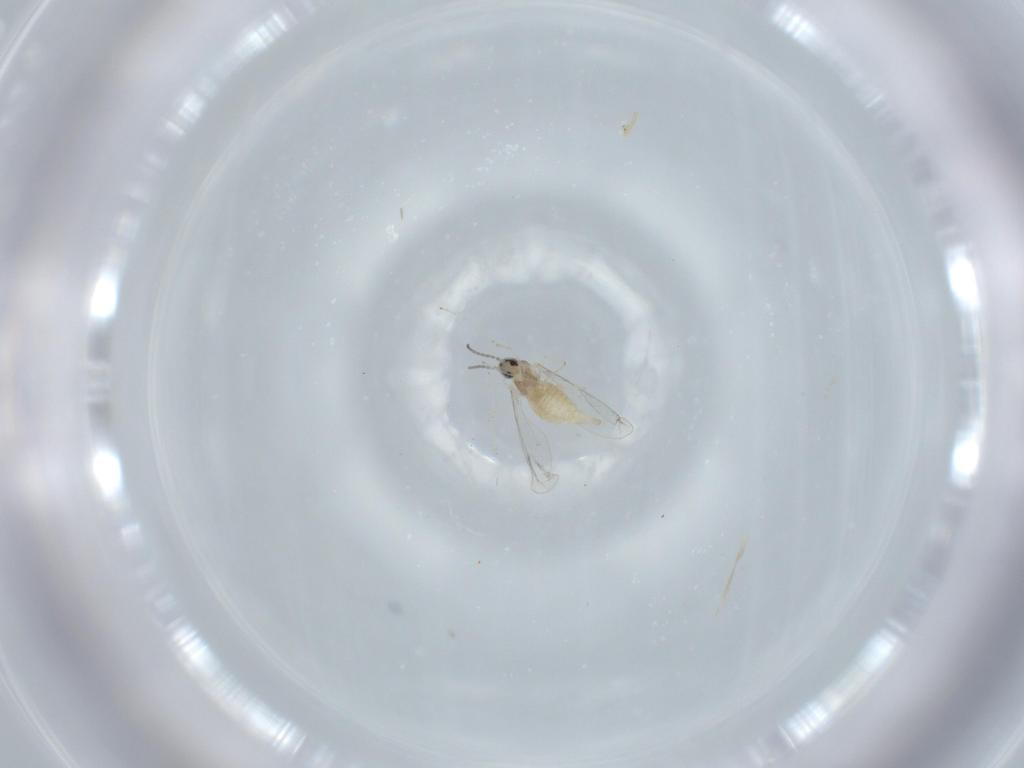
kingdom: Animalia
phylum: Arthropoda
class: Insecta
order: Diptera
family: Cecidomyiidae
